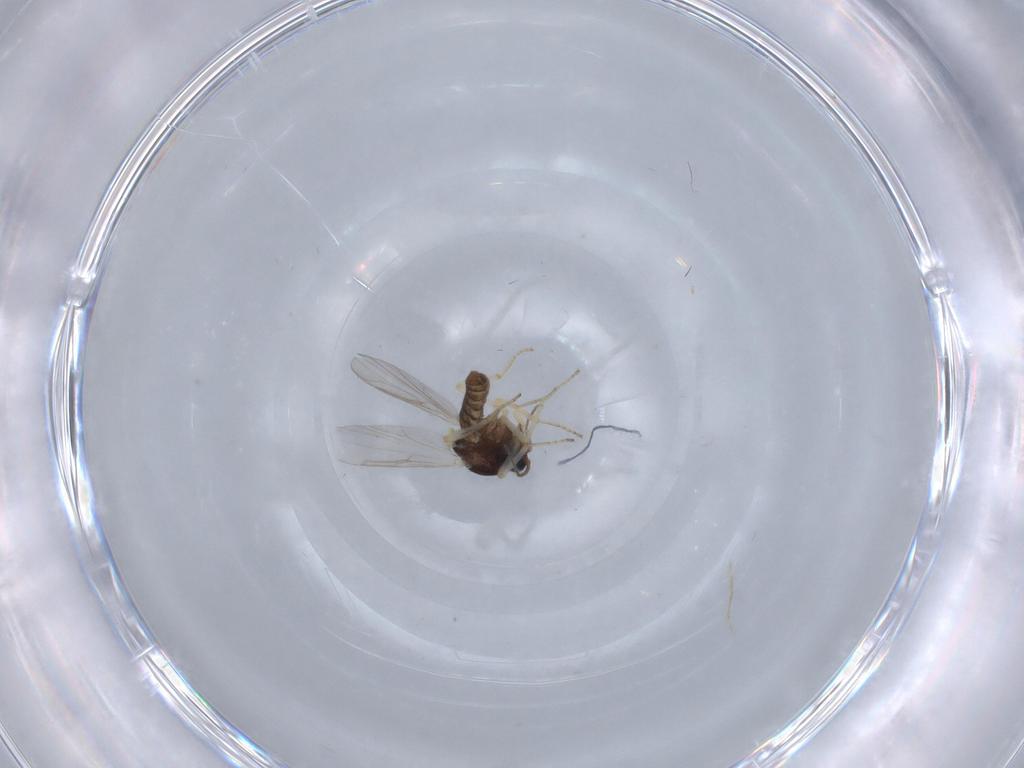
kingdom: Animalia
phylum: Arthropoda
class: Insecta
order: Diptera
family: Ceratopogonidae
